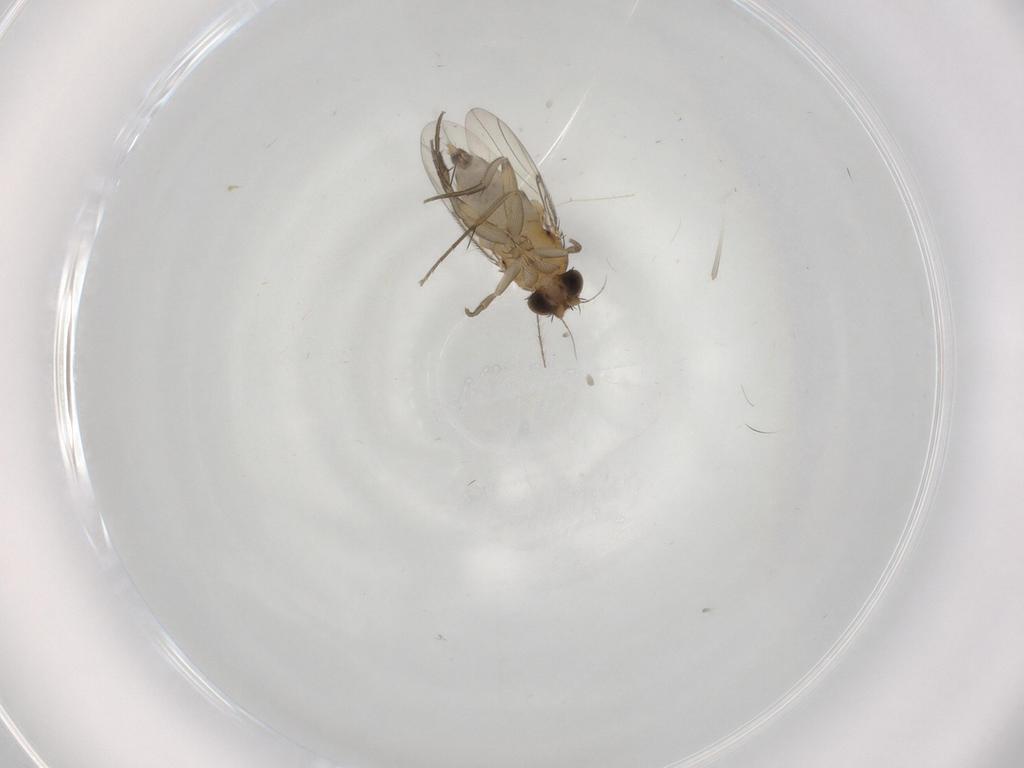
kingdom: Animalia
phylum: Arthropoda
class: Insecta
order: Diptera
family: Phoridae
